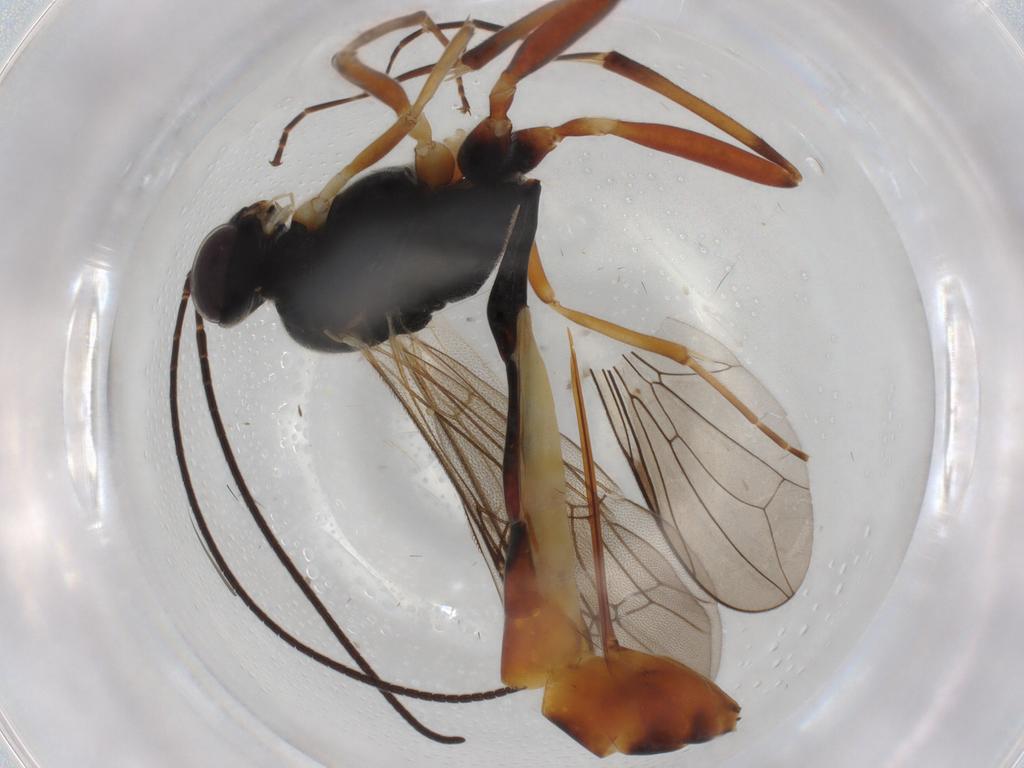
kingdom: Animalia
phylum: Arthropoda
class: Insecta
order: Hymenoptera
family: Ichneumonidae
